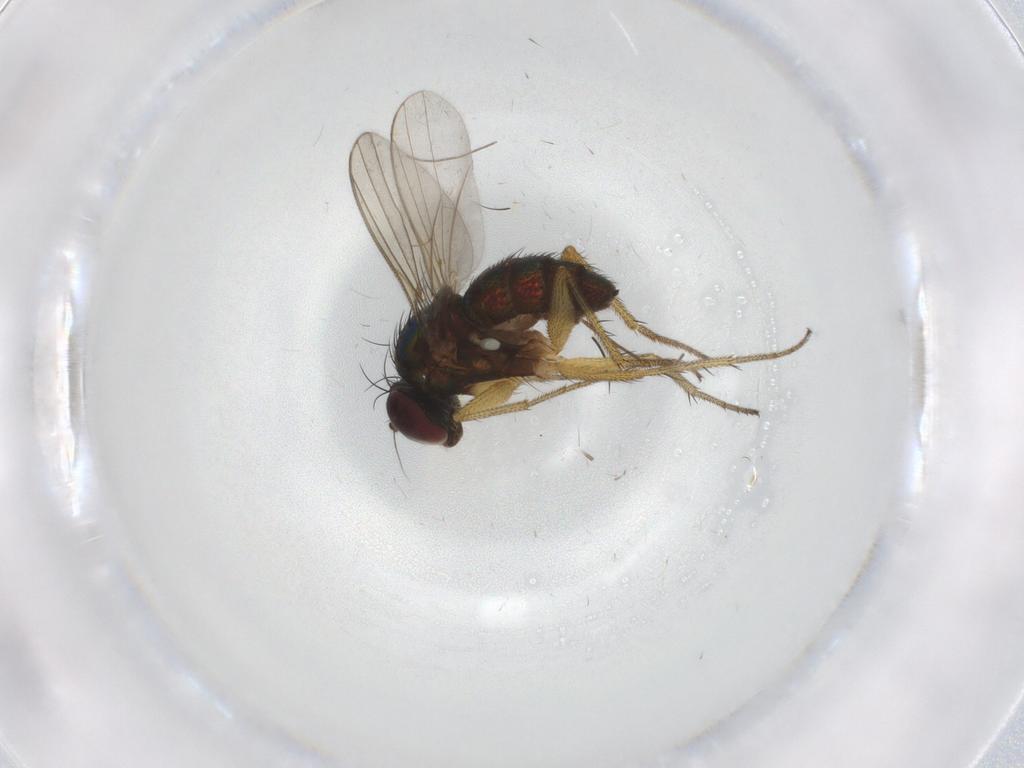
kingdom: Animalia
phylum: Arthropoda
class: Insecta
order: Diptera
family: Chironomidae
